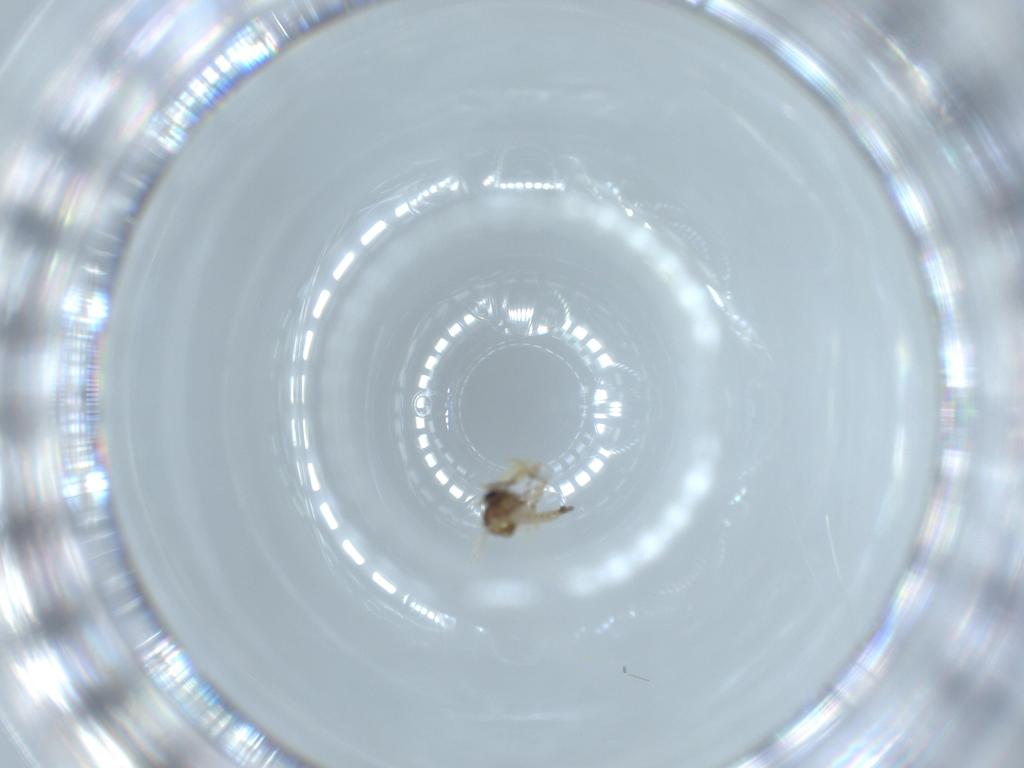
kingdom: Animalia
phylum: Arthropoda
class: Insecta
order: Diptera
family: Ceratopogonidae
